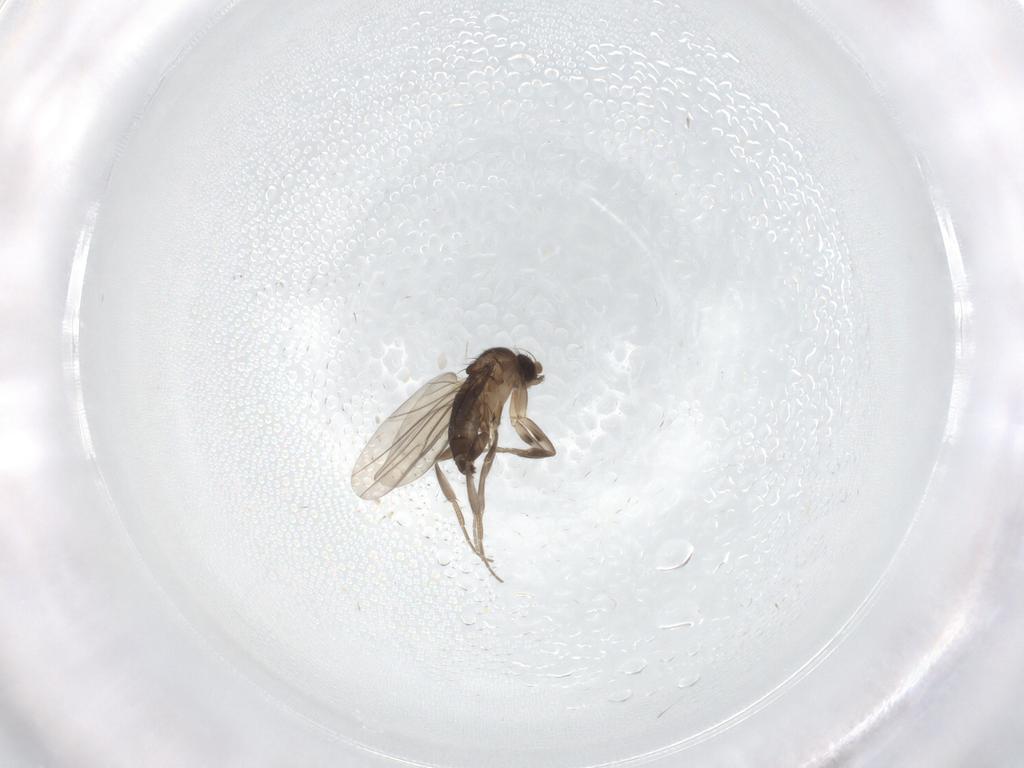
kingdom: Animalia
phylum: Arthropoda
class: Insecta
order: Diptera
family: Phoridae
